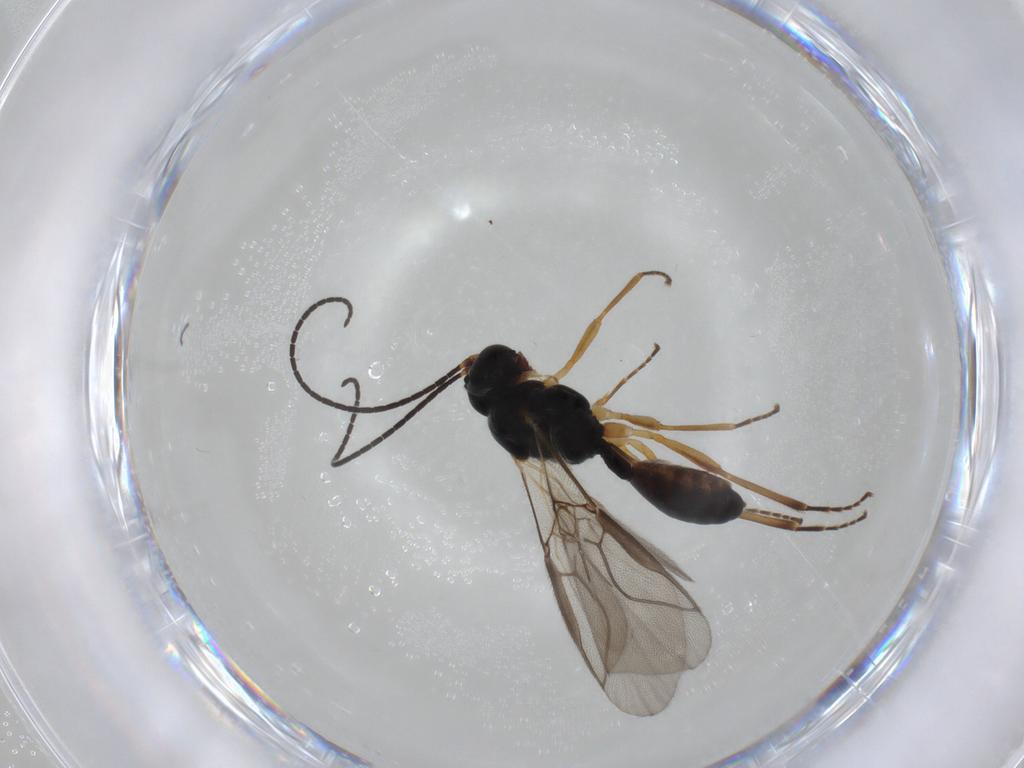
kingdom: Animalia
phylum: Arthropoda
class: Insecta
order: Hymenoptera
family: Braconidae
